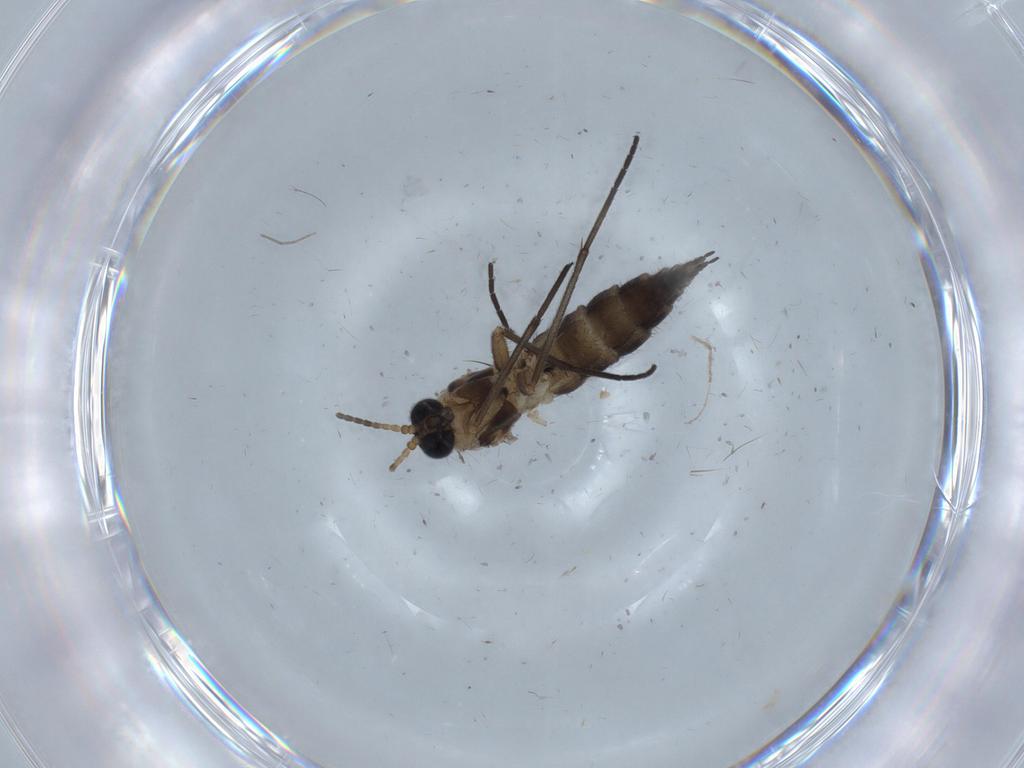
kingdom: Animalia
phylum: Arthropoda
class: Insecta
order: Diptera
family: Sciaridae
